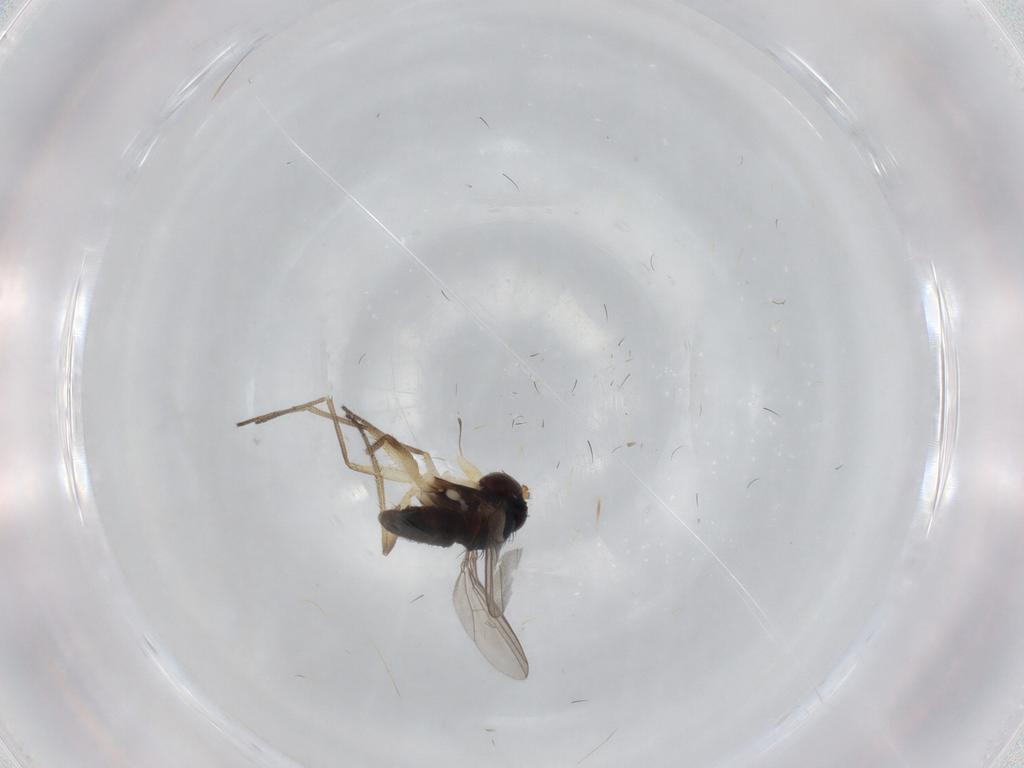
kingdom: Animalia
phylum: Arthropoda
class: Insecta
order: Diptera
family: Dolichopodidae
